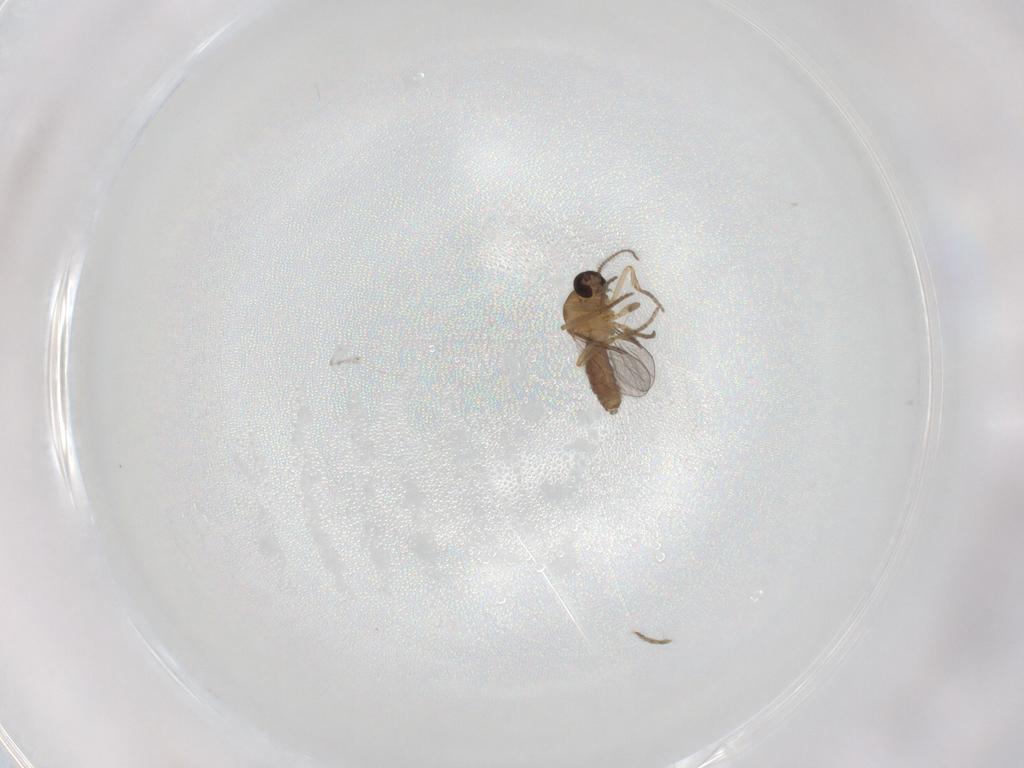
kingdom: Animalia
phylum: Arthropoda
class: Insecta
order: Diptera
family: Ceratopogonidae
